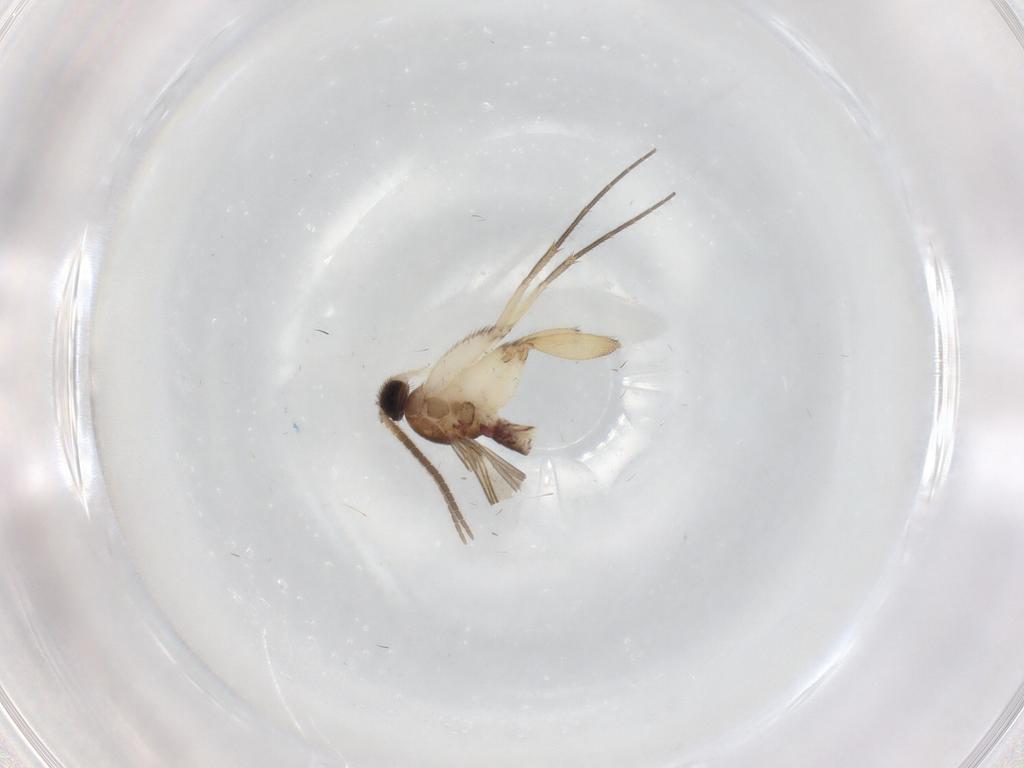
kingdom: Animalia
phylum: Arthropoda
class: Insecta
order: Diptera
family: Mycetophilidae
